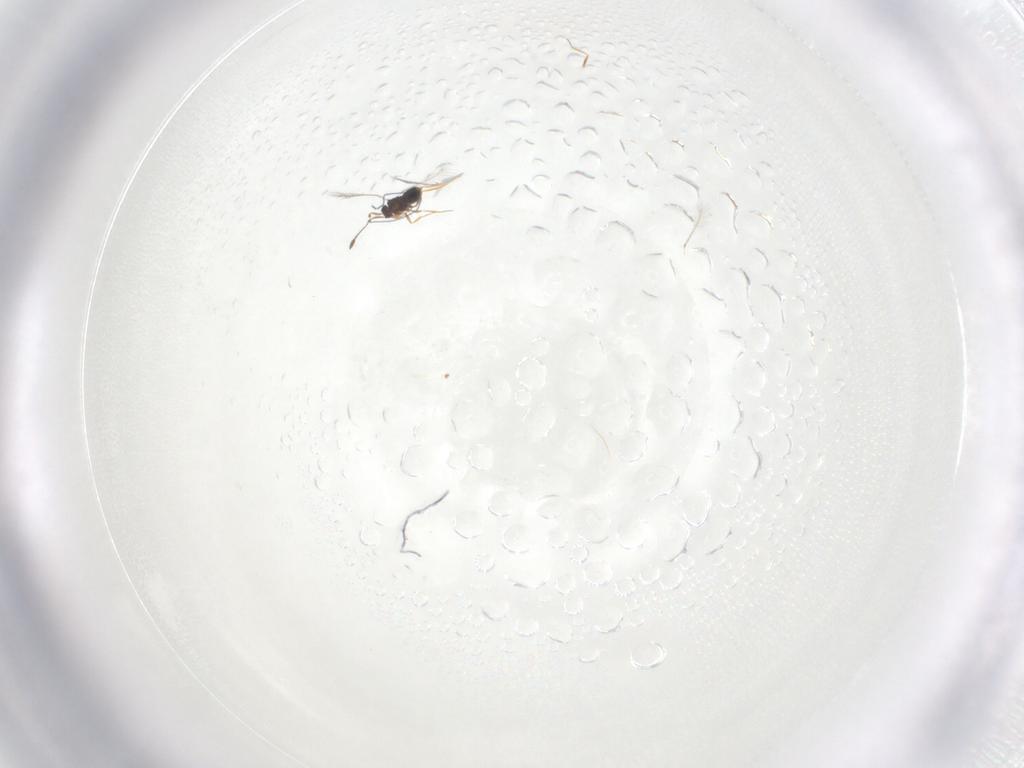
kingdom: Animalia
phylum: Arthropoda
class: Insecta
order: Hymenoptera
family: Mymaridae
